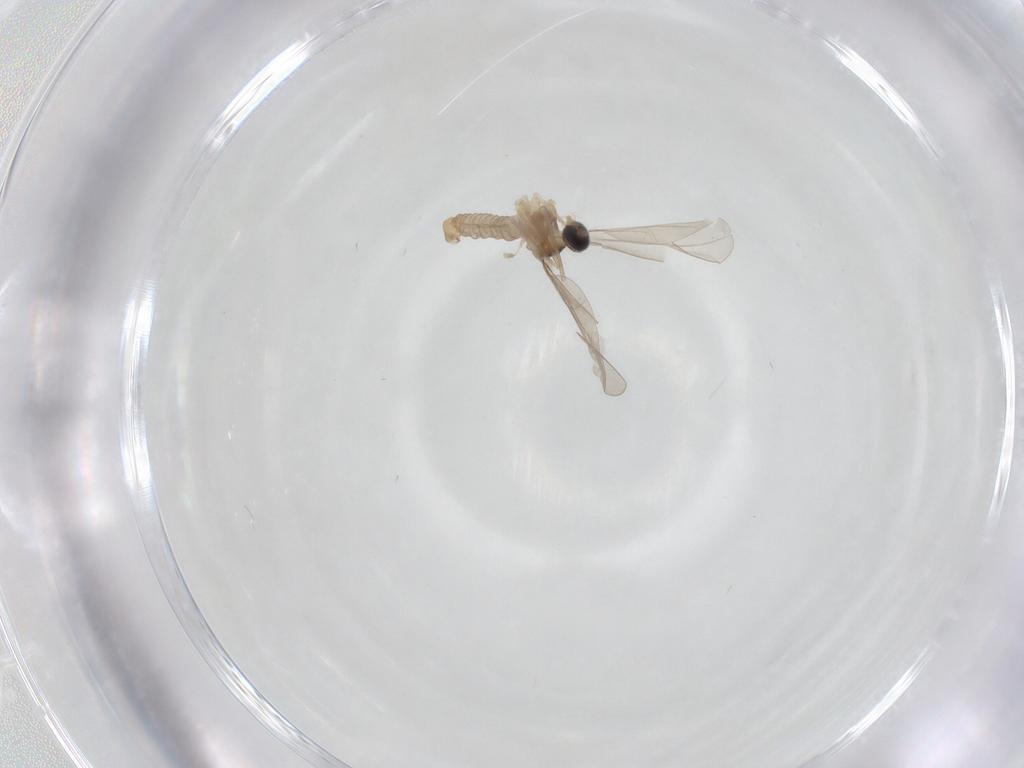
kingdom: Animalia
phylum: Arthropoda
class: Insecta
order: Diptera
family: Cecidomyiidae
